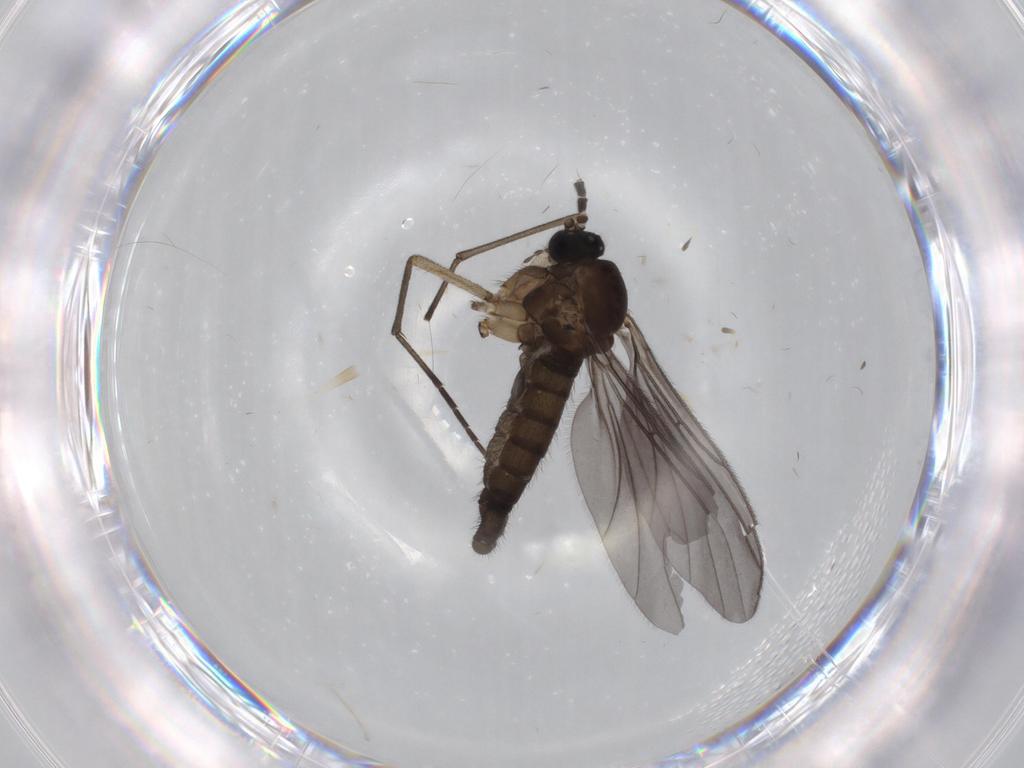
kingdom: Animalia
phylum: Arthropoda
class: Insecta
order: Diptera
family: Sciaridae
